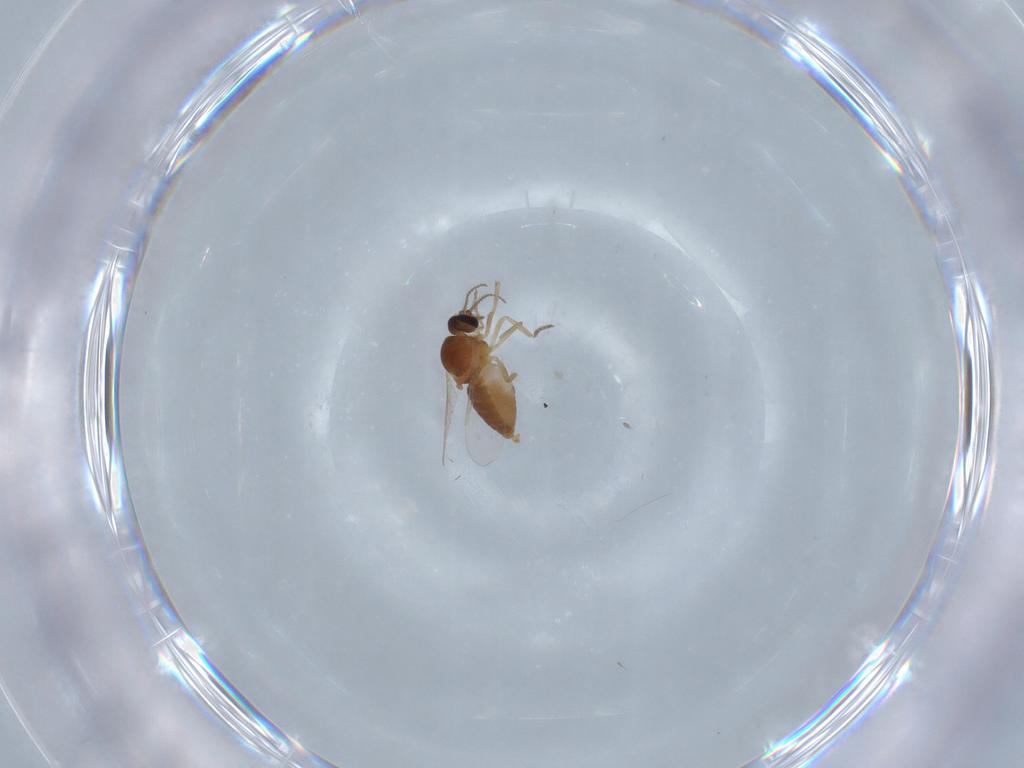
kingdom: Animalia
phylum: Arthropoda
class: Insecta
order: Diptera
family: Ceratopogonidae
